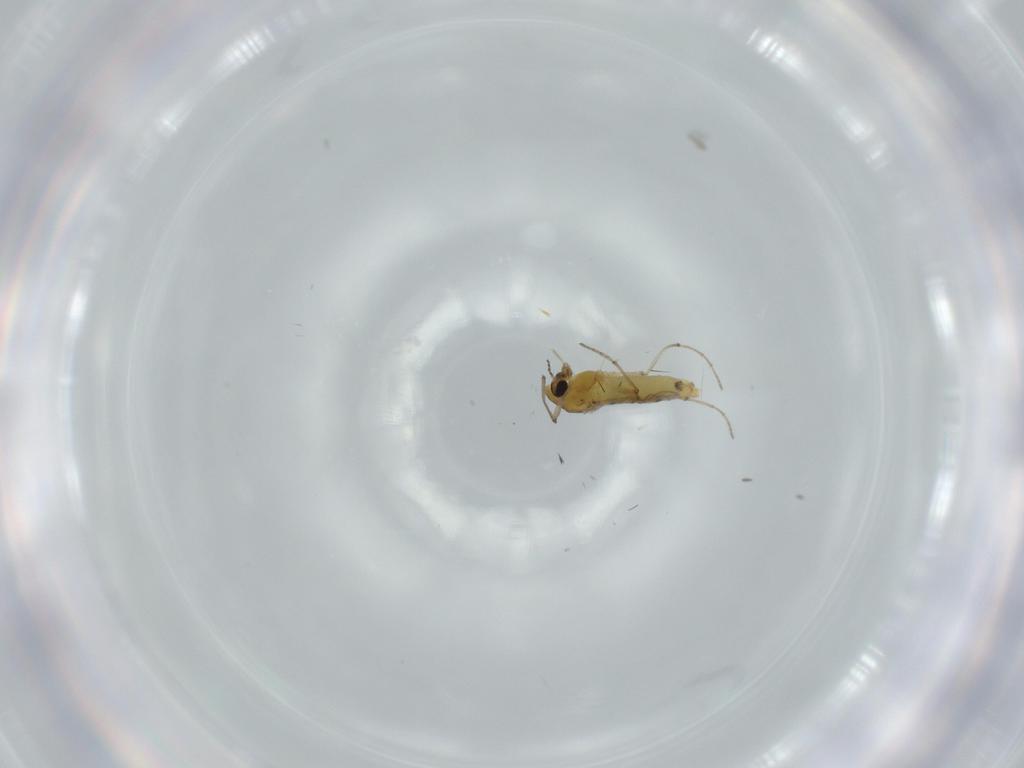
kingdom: Animalia
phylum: Arthropoda
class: Insecta
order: Diptera
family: Chironomidae
